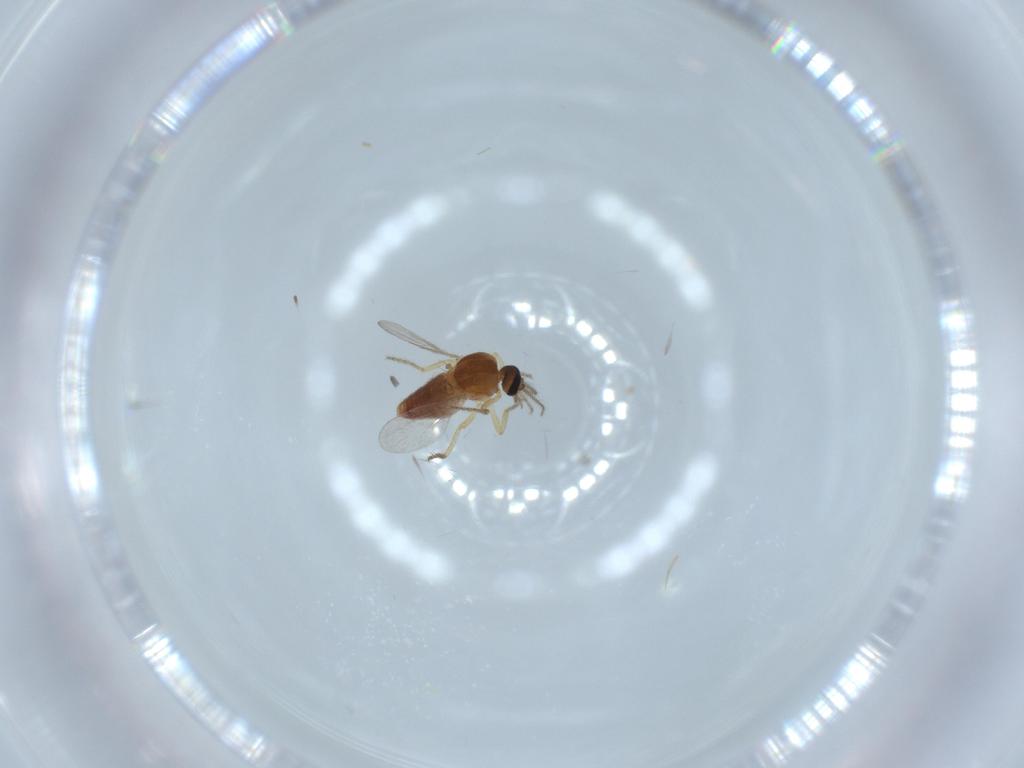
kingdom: Animalia
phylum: Arthropoda
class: Insecta
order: Diptera
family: Ceratopogonidae
